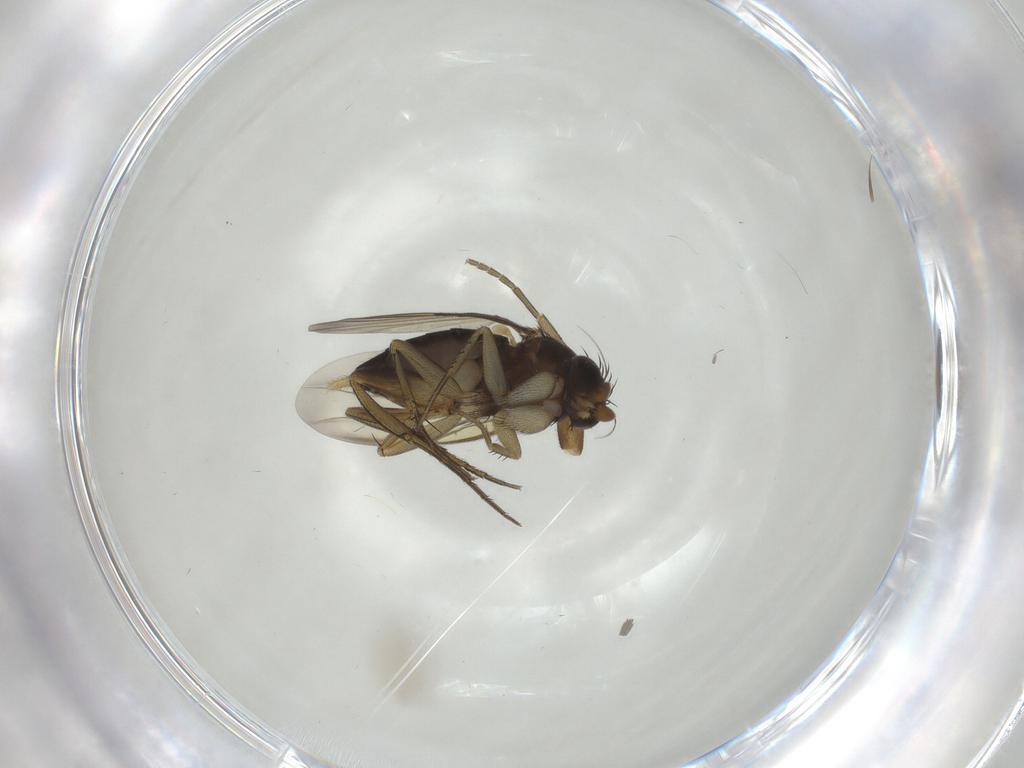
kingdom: Animalia
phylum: Arthropoda
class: Insecta
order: Diptera
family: Phoridae
